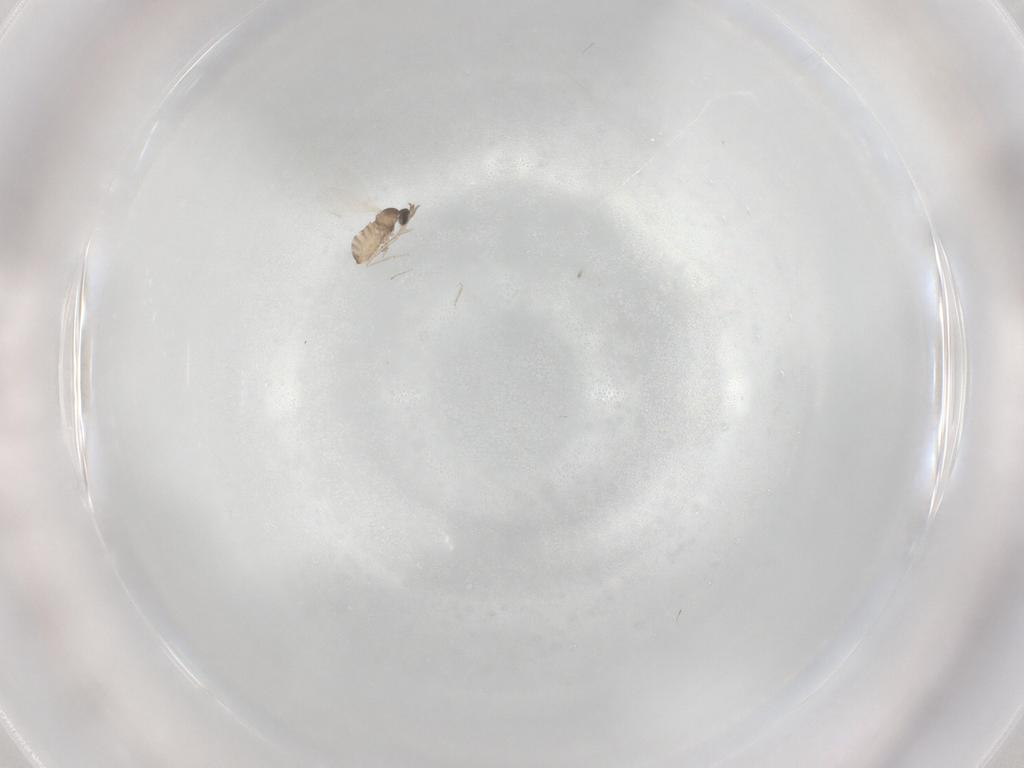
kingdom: Animalia
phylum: Arthropoda
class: Insecta
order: Diptera
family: Cecidomyiidae
